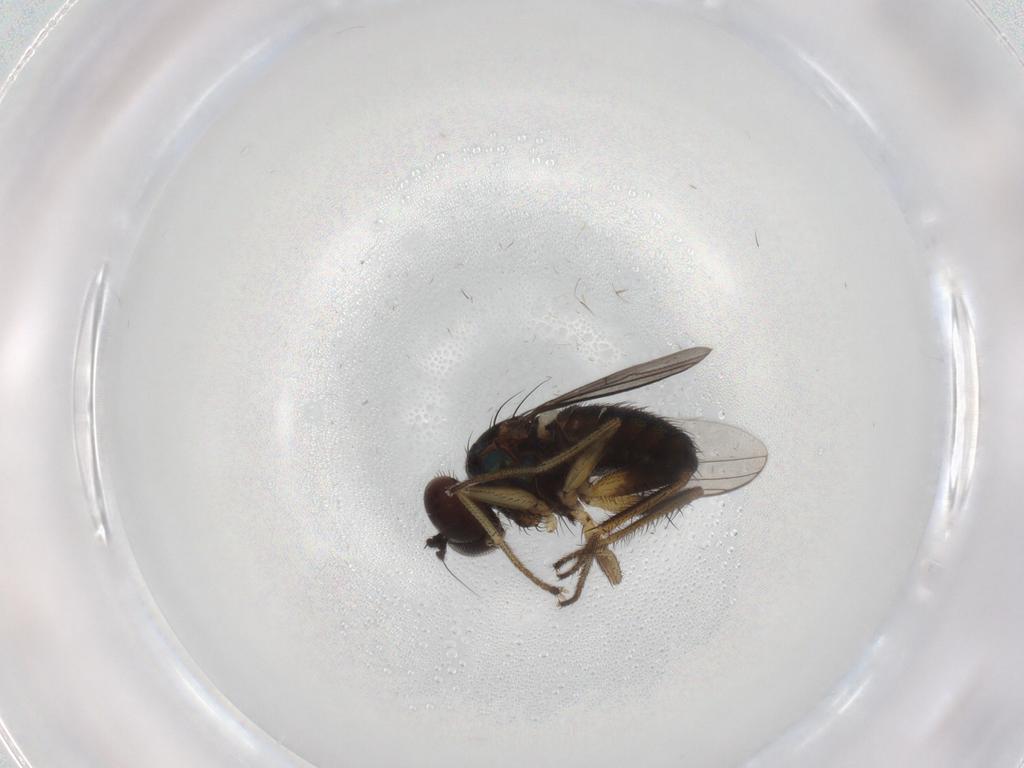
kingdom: Animalia
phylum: Arthropoda
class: Insecta
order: Diptera
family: Dolichopodidae
